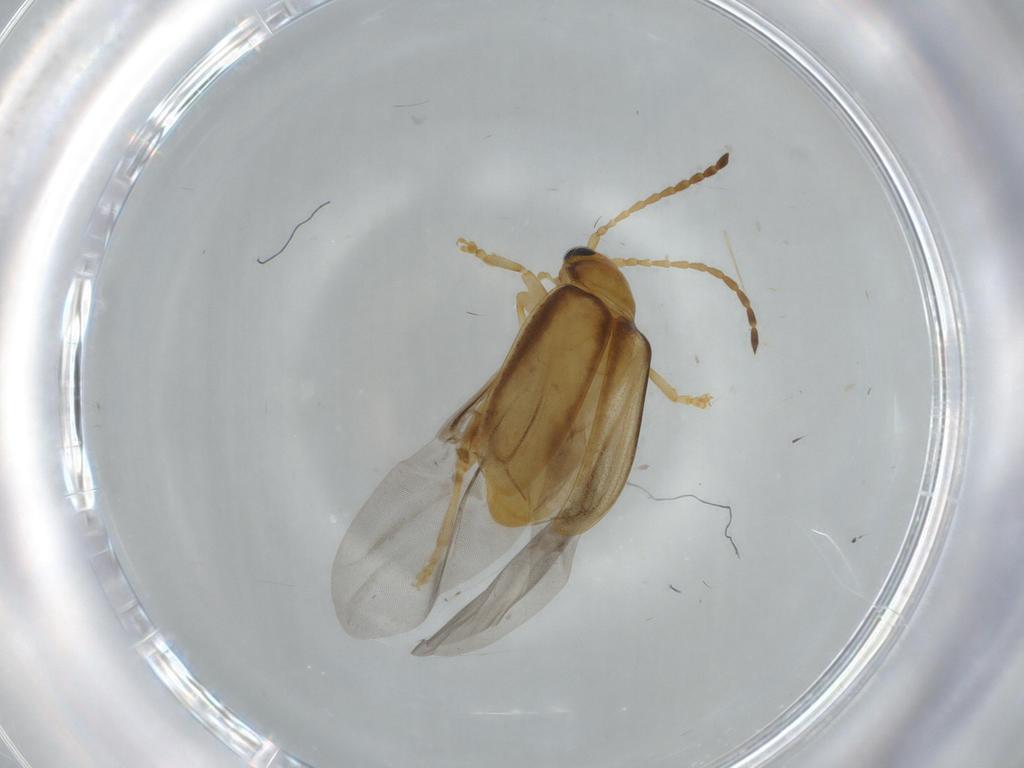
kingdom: Animalia
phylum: Arthropoda
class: Insecta
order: Coleoptera
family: Chrysomelidae
